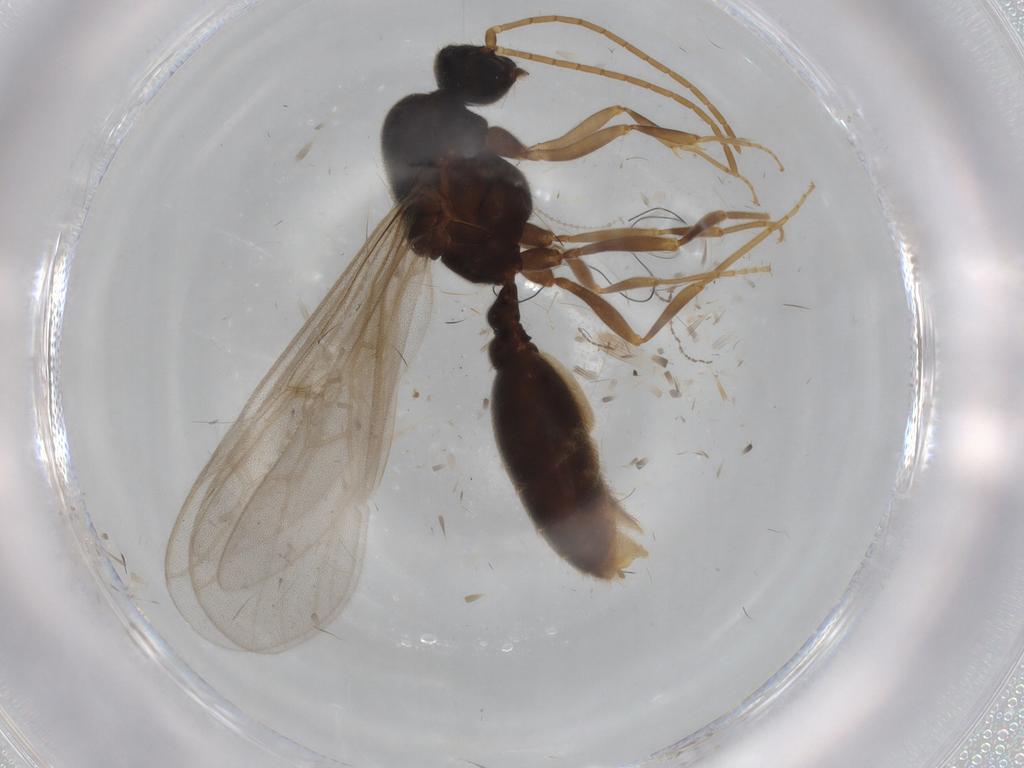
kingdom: Animalia
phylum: Arthropoda
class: Insecta
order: Hymenoptera
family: Formicidae
